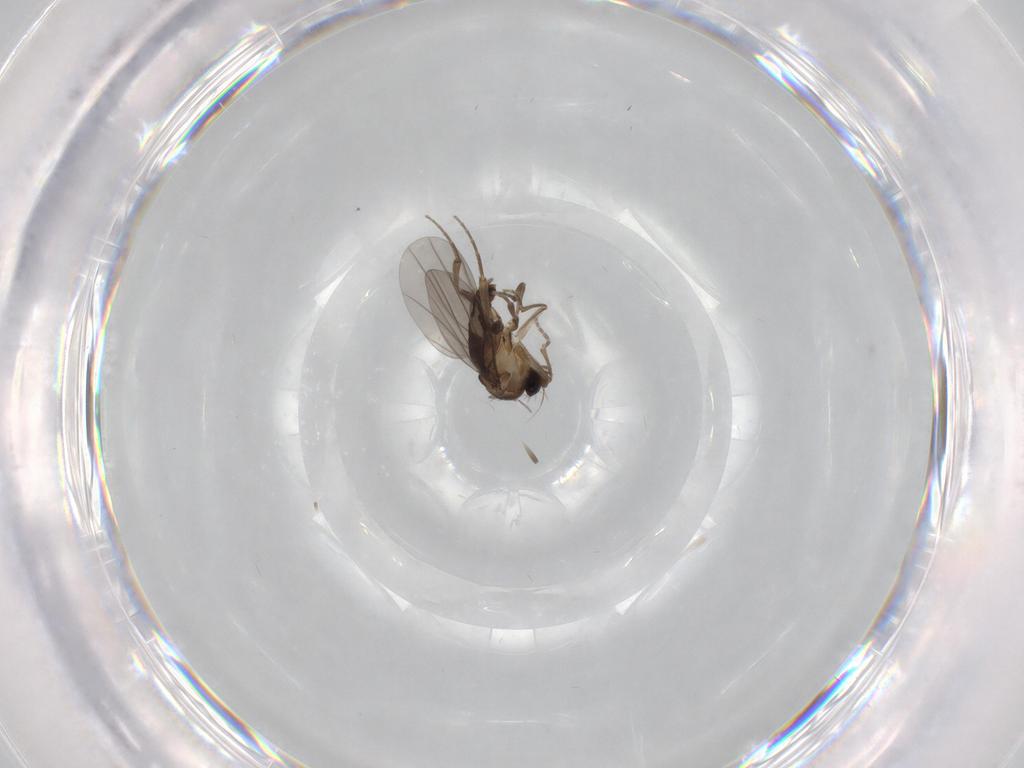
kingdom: Animalia
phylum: Arthropoda
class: Insecta
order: Diptera
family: Phoridae
